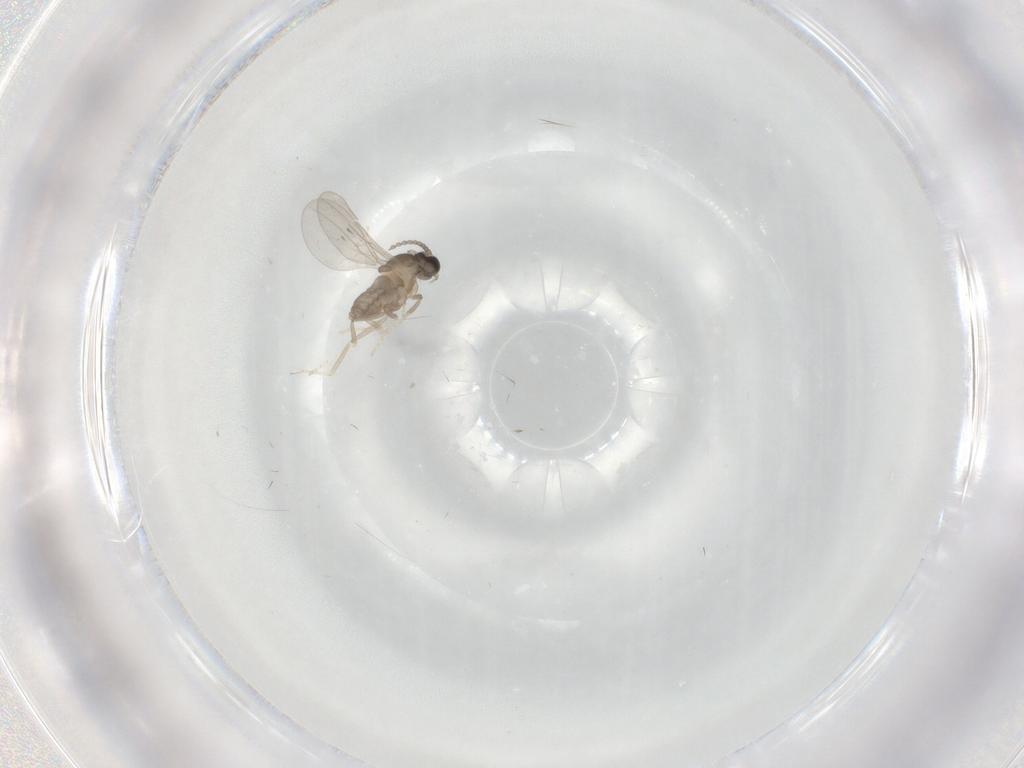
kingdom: Animalia
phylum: Arthropoda
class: Insecta
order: Diptera
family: Cecidomyiidae
